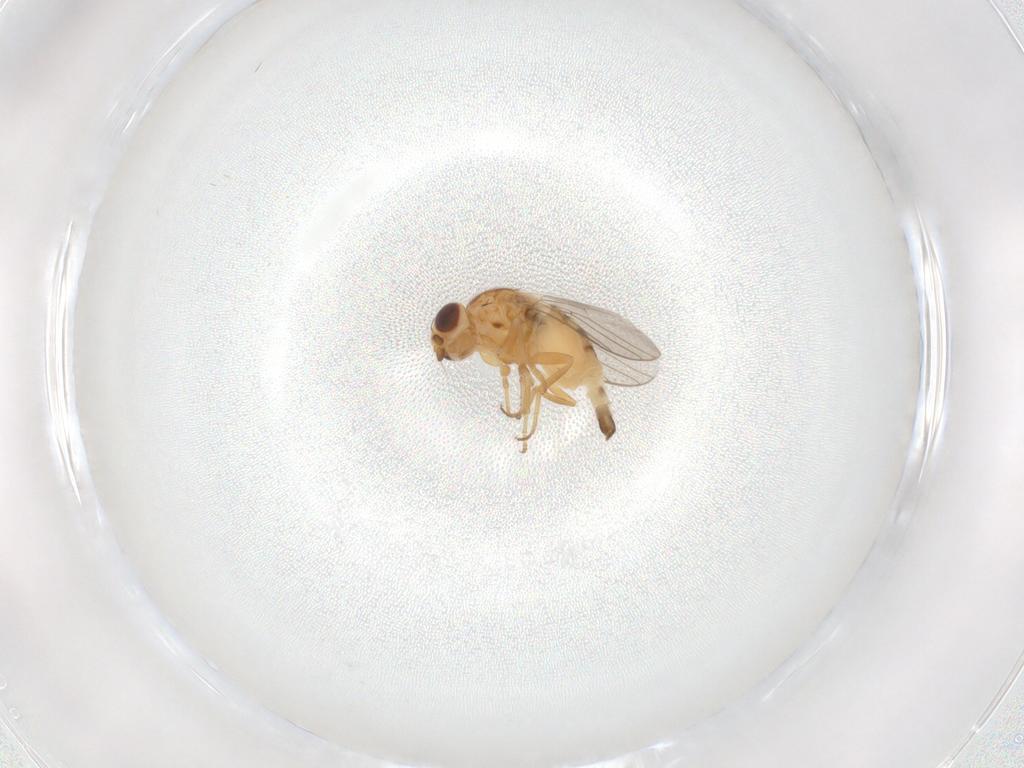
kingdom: Animalia
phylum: Arthropoda
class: Insecta
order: Diptera
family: Chloropidae
